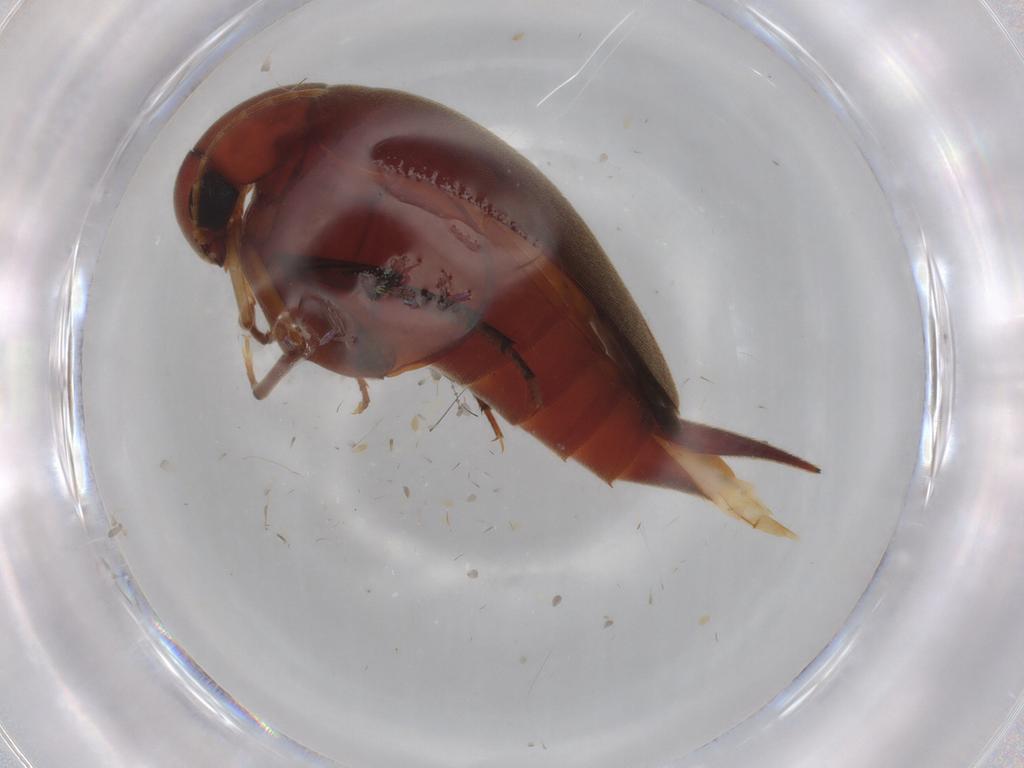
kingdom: Animalia
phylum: Arthropoda
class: Insecta
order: Coleoptera
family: Mordellidae
